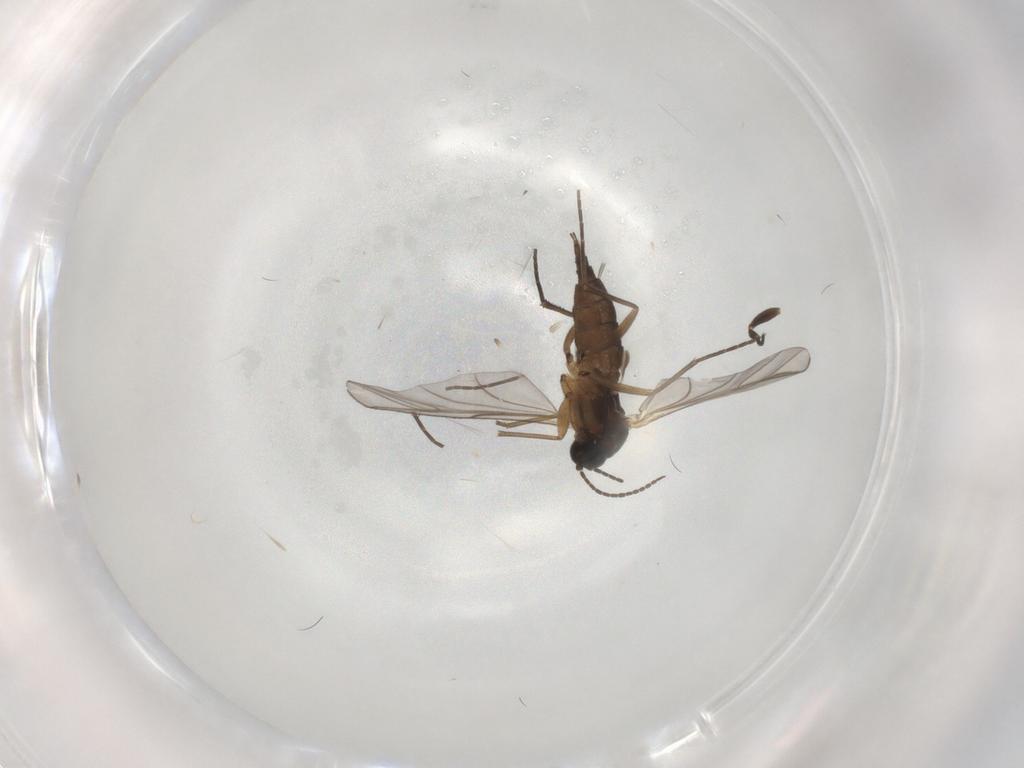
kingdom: Animalia
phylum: Arthropoda
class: Insecta
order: Diptera
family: Sciaridae
